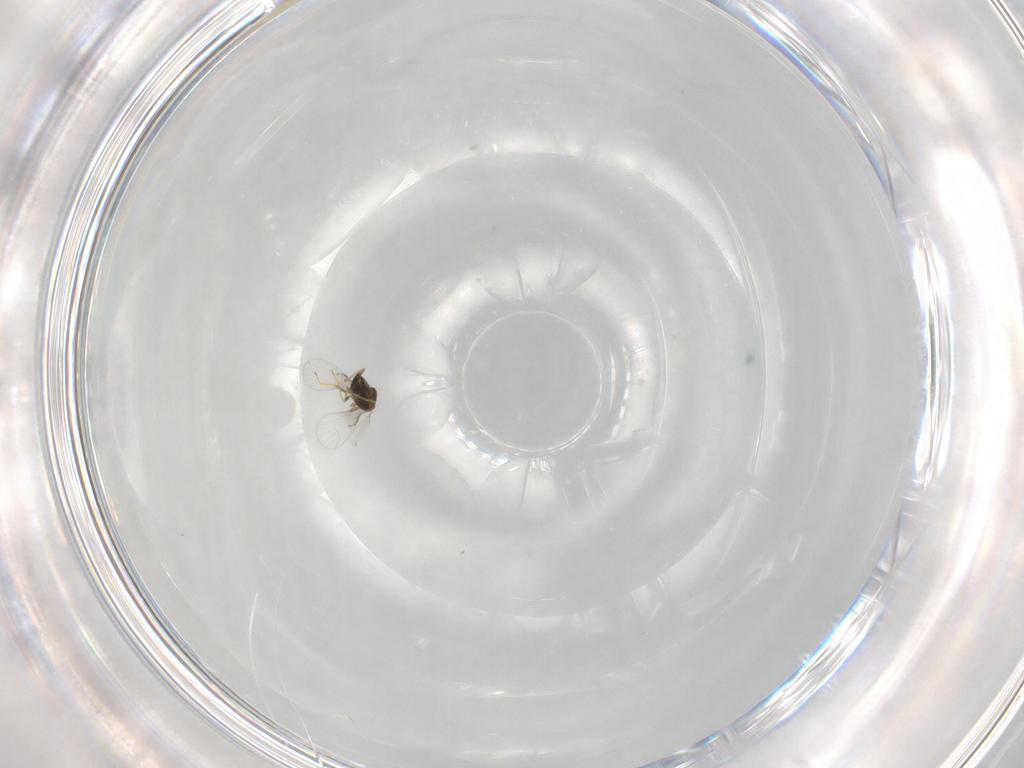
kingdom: Animalia
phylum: Arthropoda
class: Insecta
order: Hymenoptera
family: Trichogrammatidae
